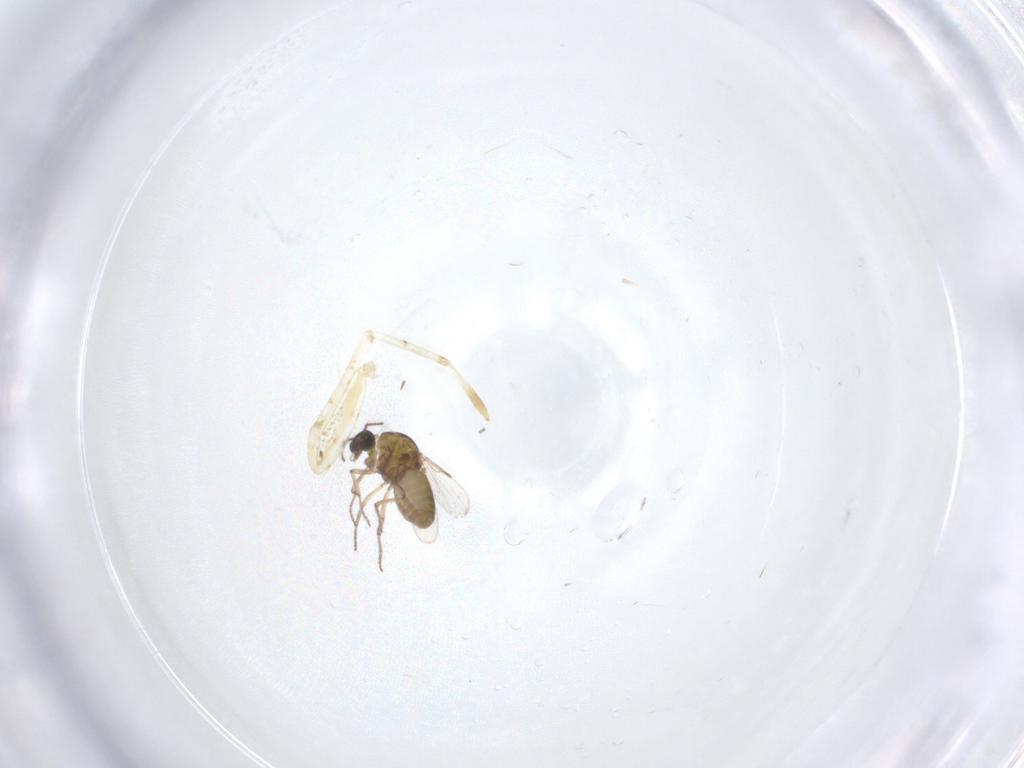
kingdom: Animalia
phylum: Arthropoda
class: Insecta
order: Diptera
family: Ceratopogonidae
